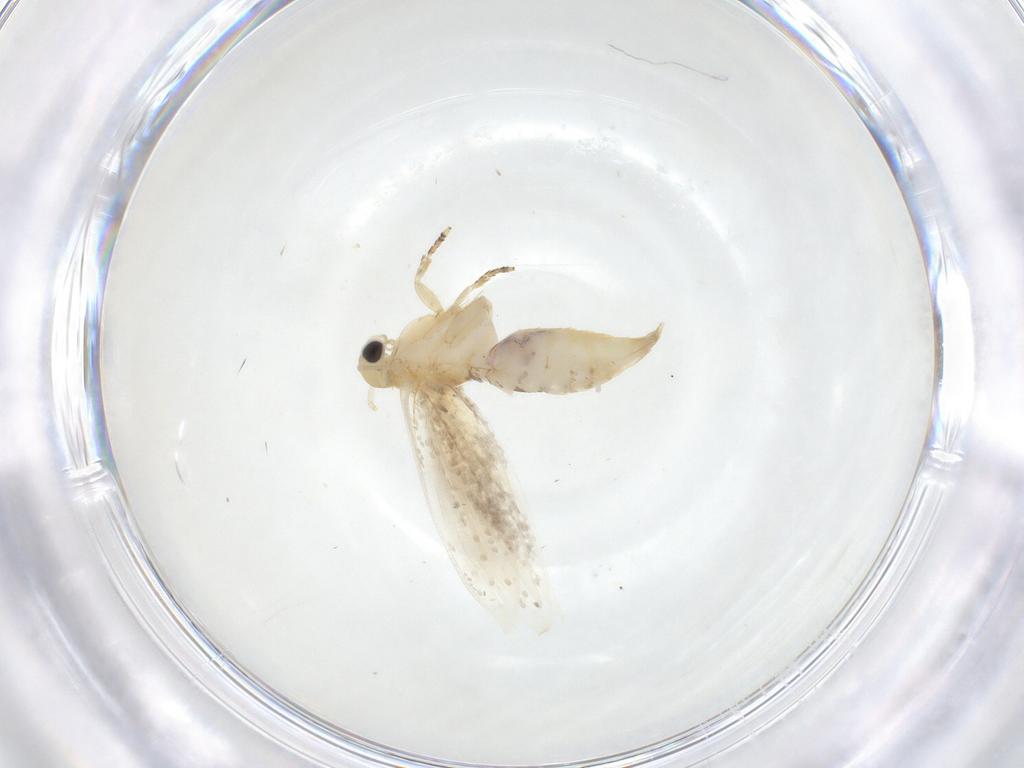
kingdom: Animalia
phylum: Arthropoda
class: Insecta
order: Lepidoptera
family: Tineidae
